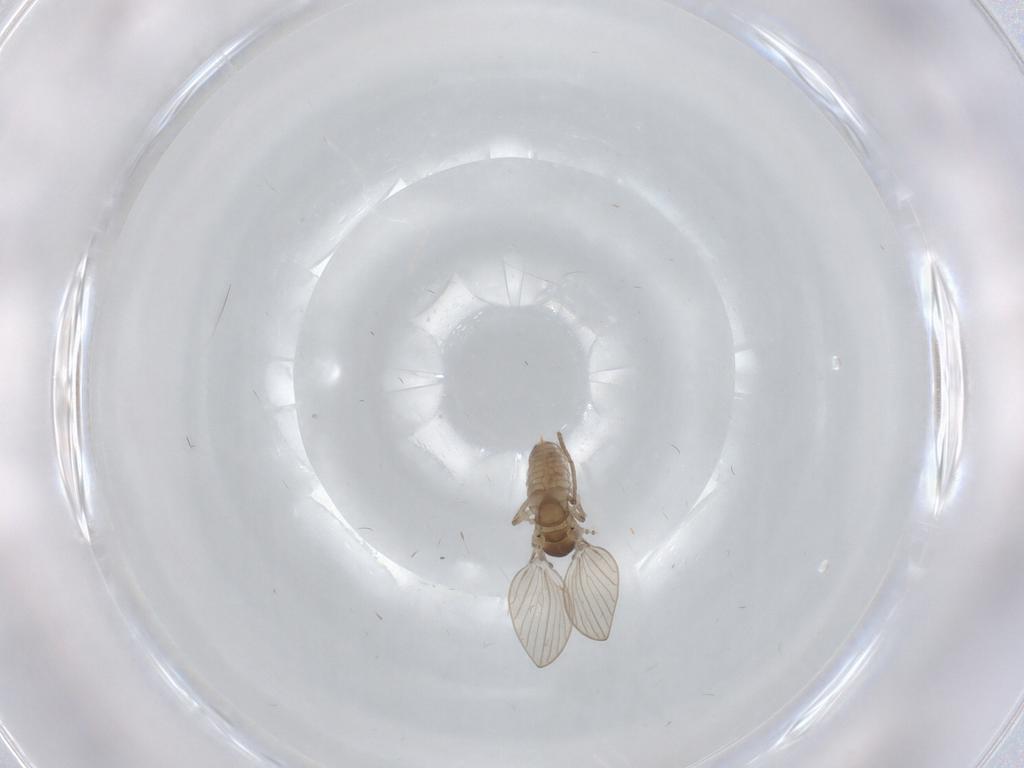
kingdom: Animalia
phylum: Arthropoda
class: Insecta
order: Diptera
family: Psychodidae
